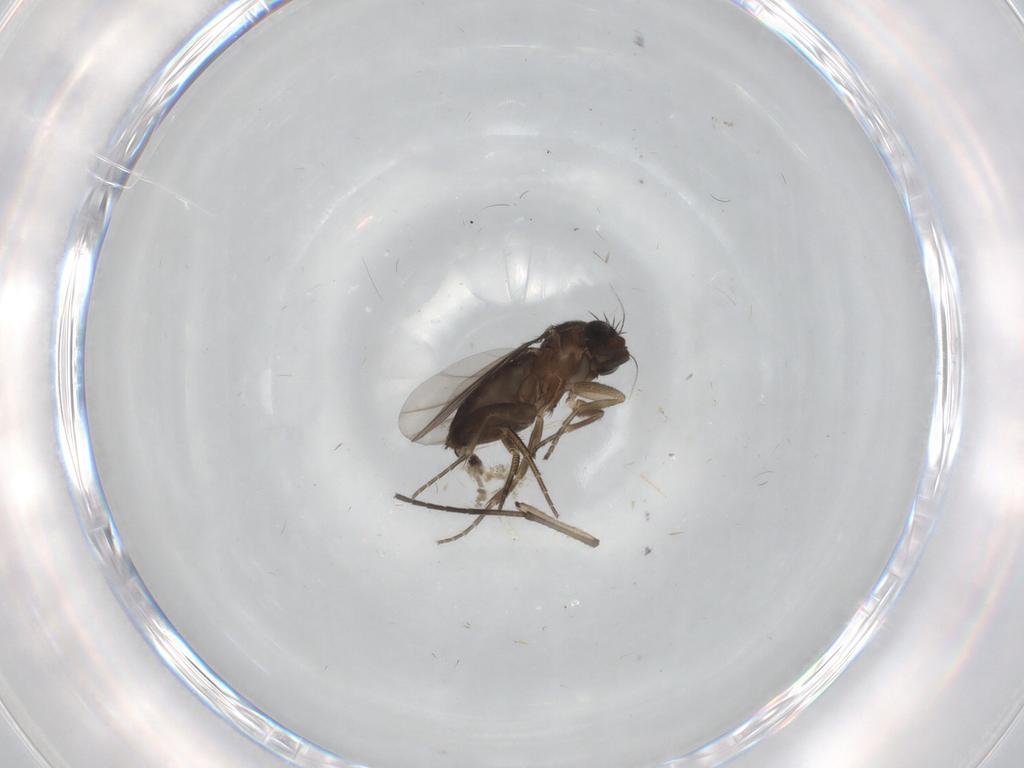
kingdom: Animalia
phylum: Arthropoda
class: Insecta
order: Diptera
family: Phoridae
